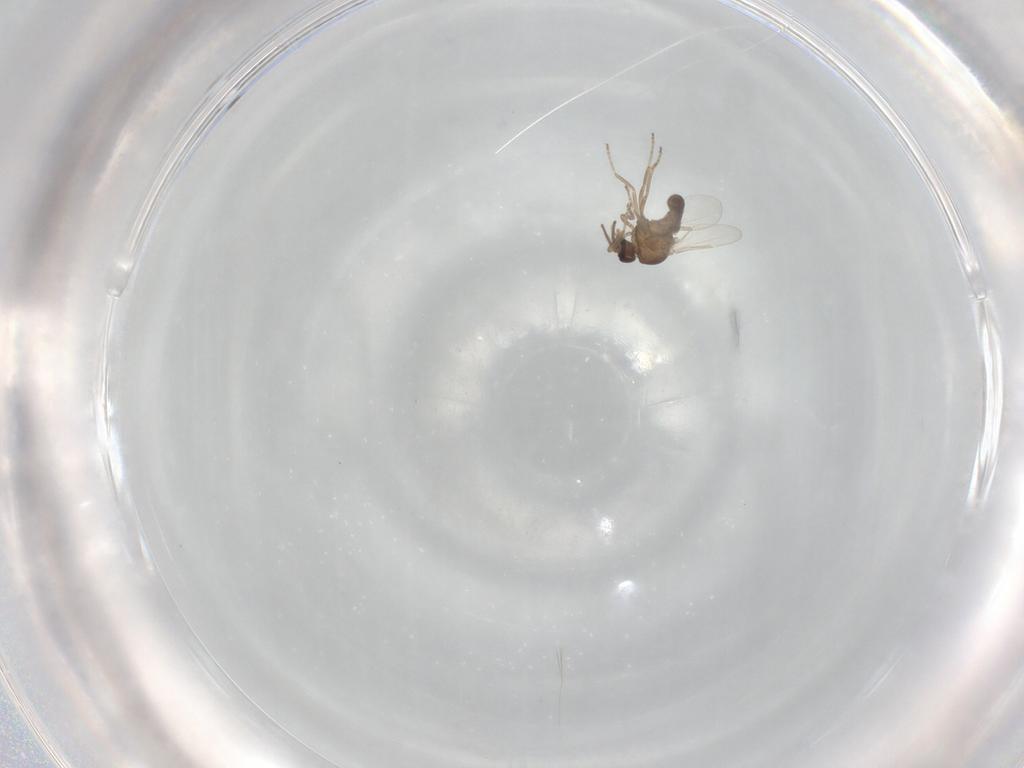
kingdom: Animalia
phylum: Arthropoda
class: Insecta
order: Diptera
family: Ceratopogonidae
